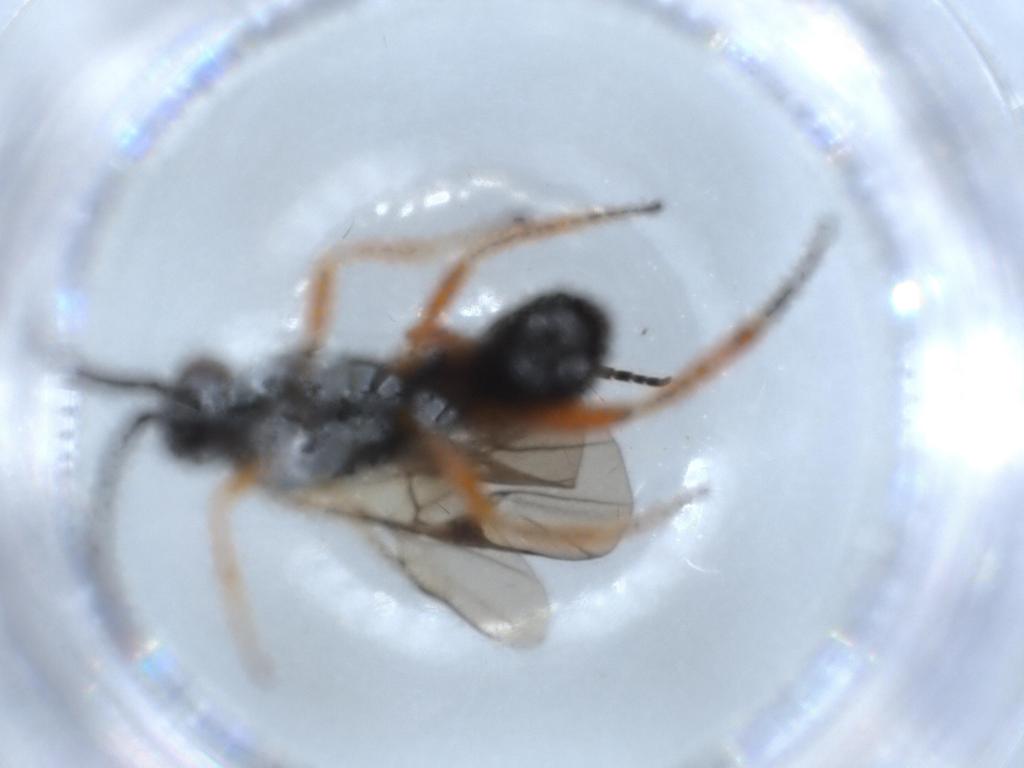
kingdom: Animalia
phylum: Arthropoda
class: Insecta
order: Hymenoptera
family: Braconidae
